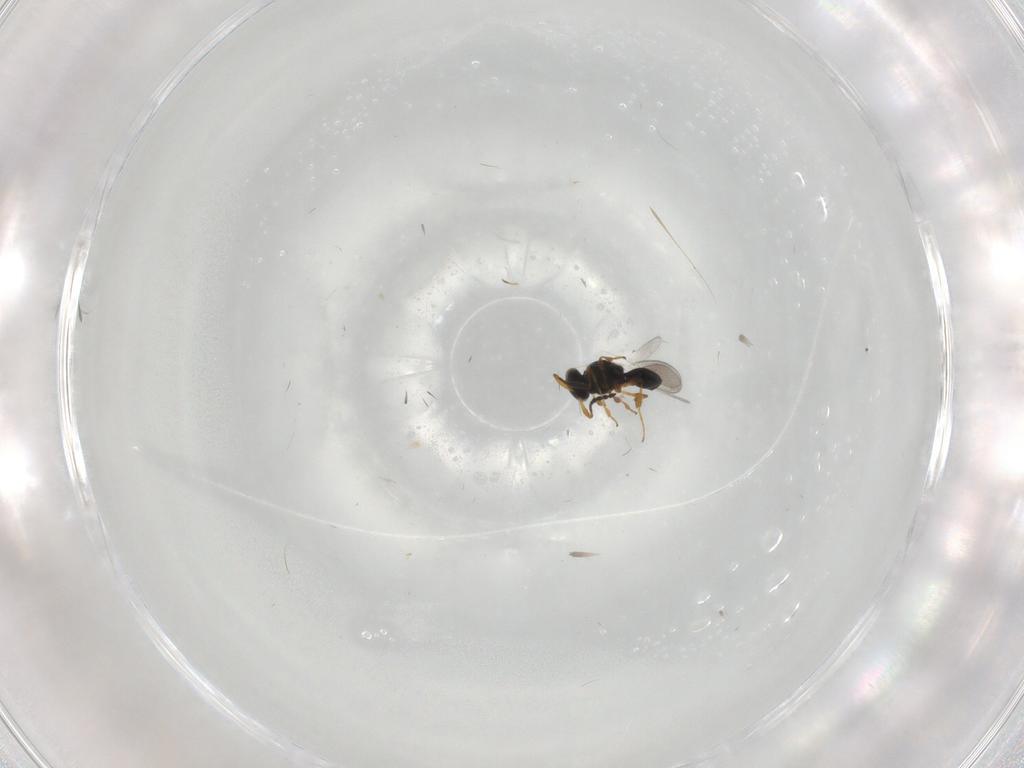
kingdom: Animalia
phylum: Arthropoda
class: Insecta
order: Hymenoptera
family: Platygastridae
